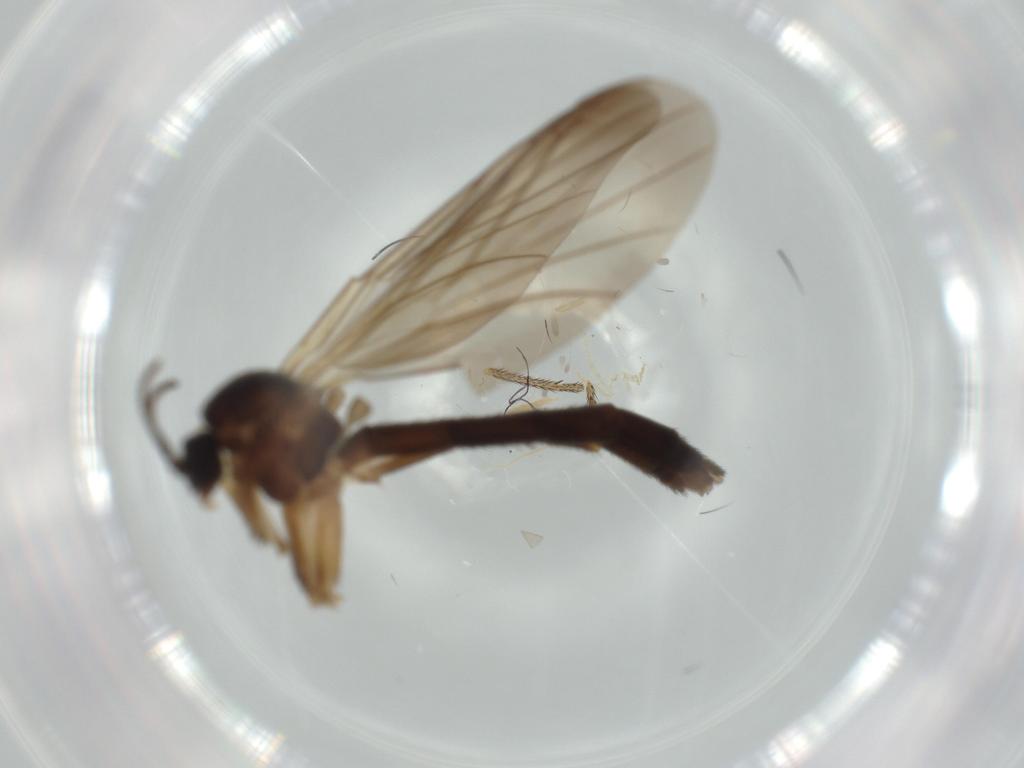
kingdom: Animalia
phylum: Arthropoda
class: Insecta
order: Diptera
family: Keroplatidae
